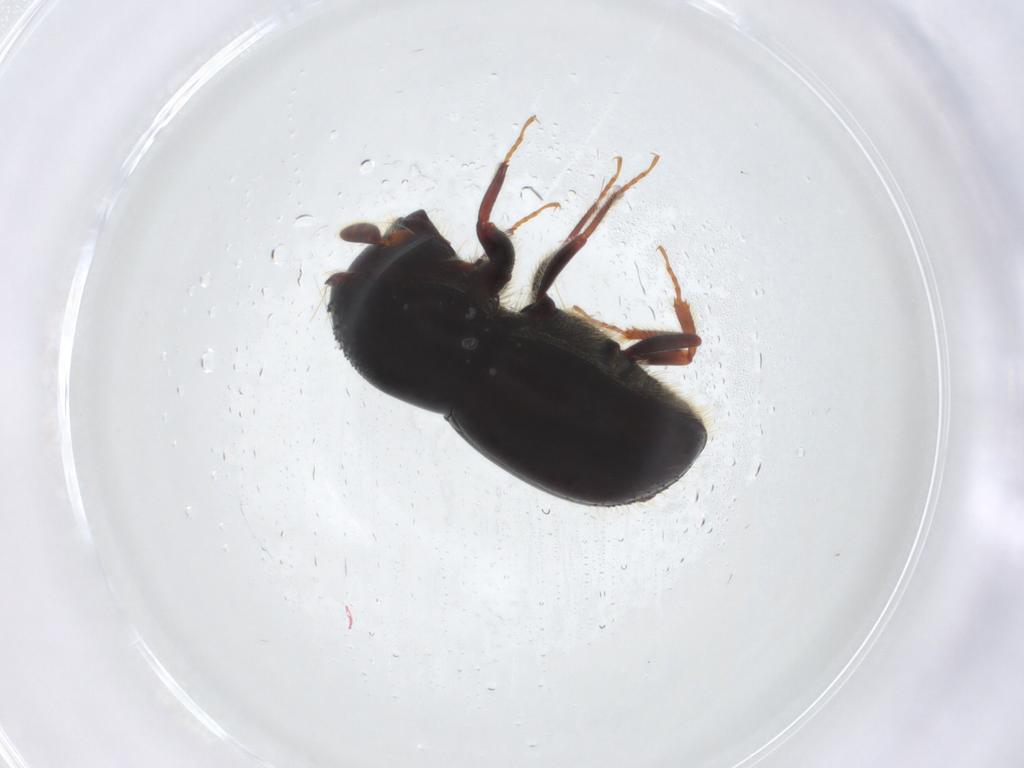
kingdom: Animalia
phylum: Arthropoda
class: Insecta
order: Coleoptera
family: Curculionidae
